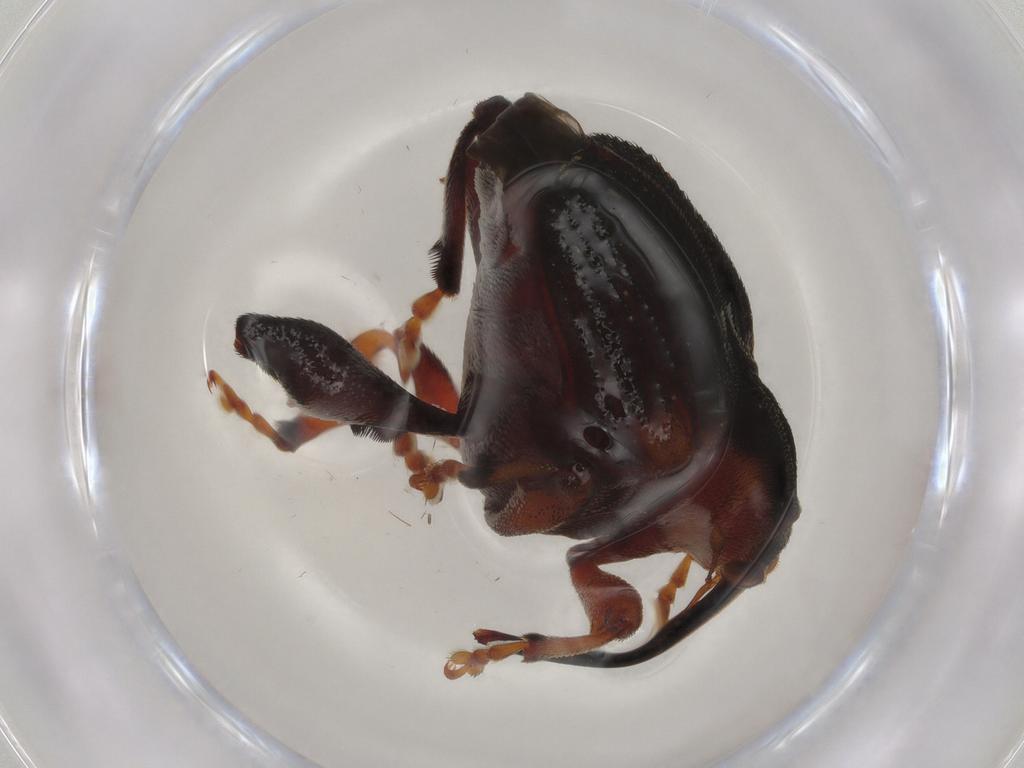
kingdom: Animalia
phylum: Arthropoda
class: Insecta
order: Coleoptera
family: Curculionidae
